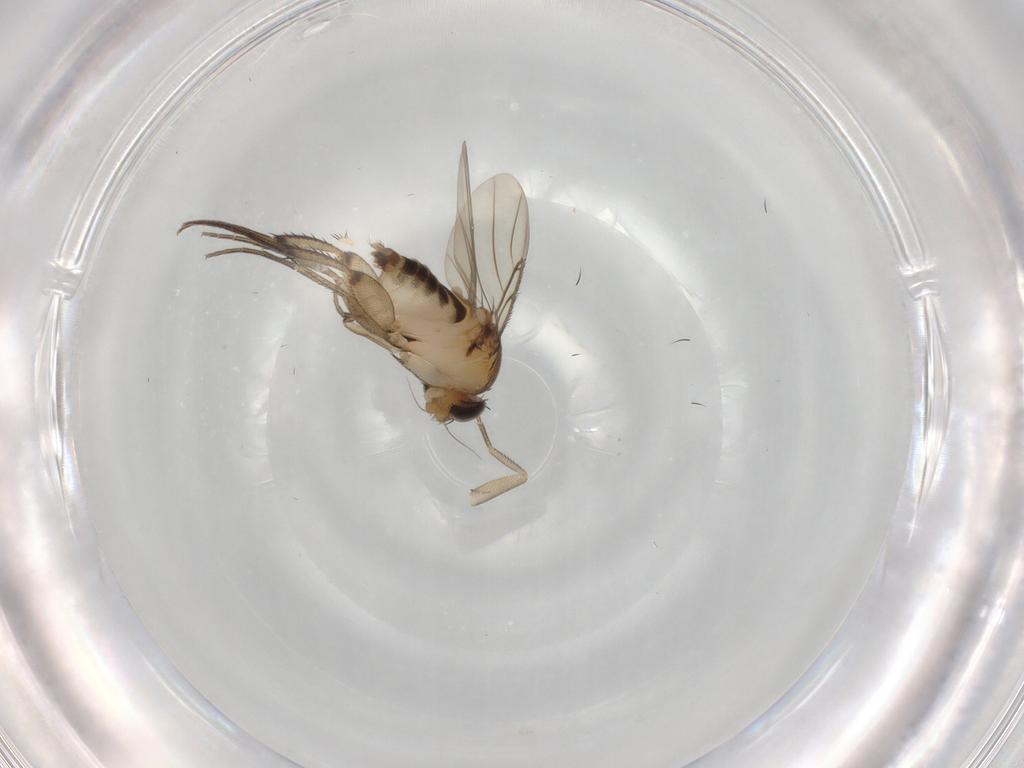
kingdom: Animalia
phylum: Arthropoda
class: Insecta
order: Diptera
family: Phoridae
